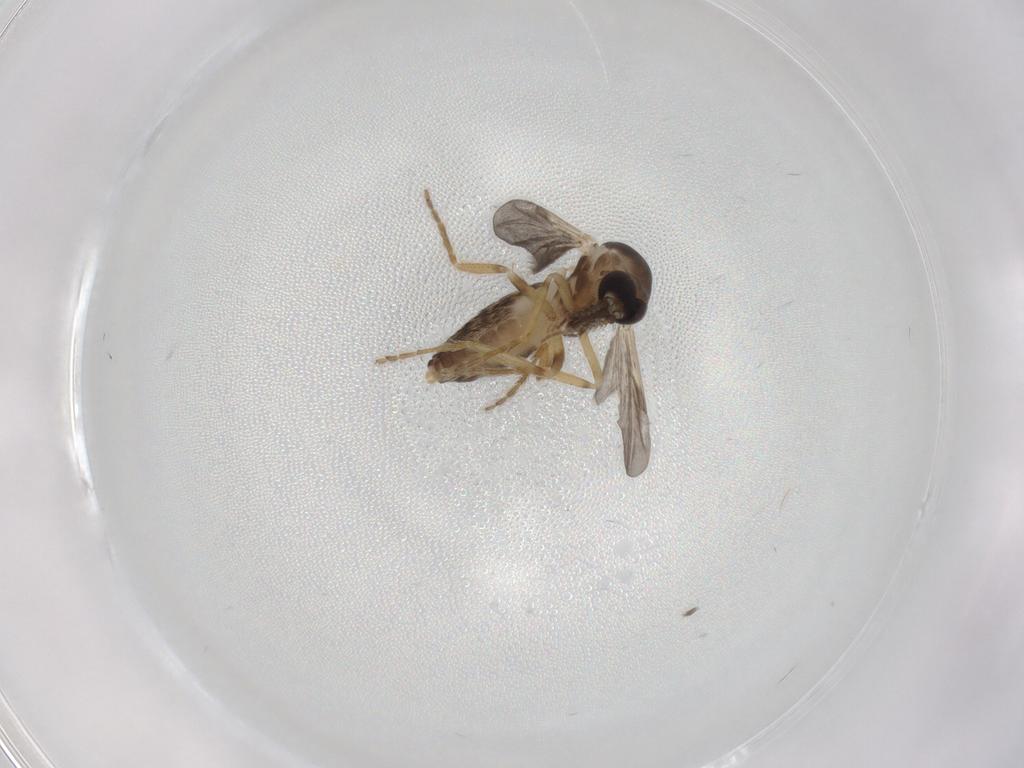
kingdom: Animalia
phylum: Arthropoda
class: Insecta
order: Diptera
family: Ceratopogonidae
